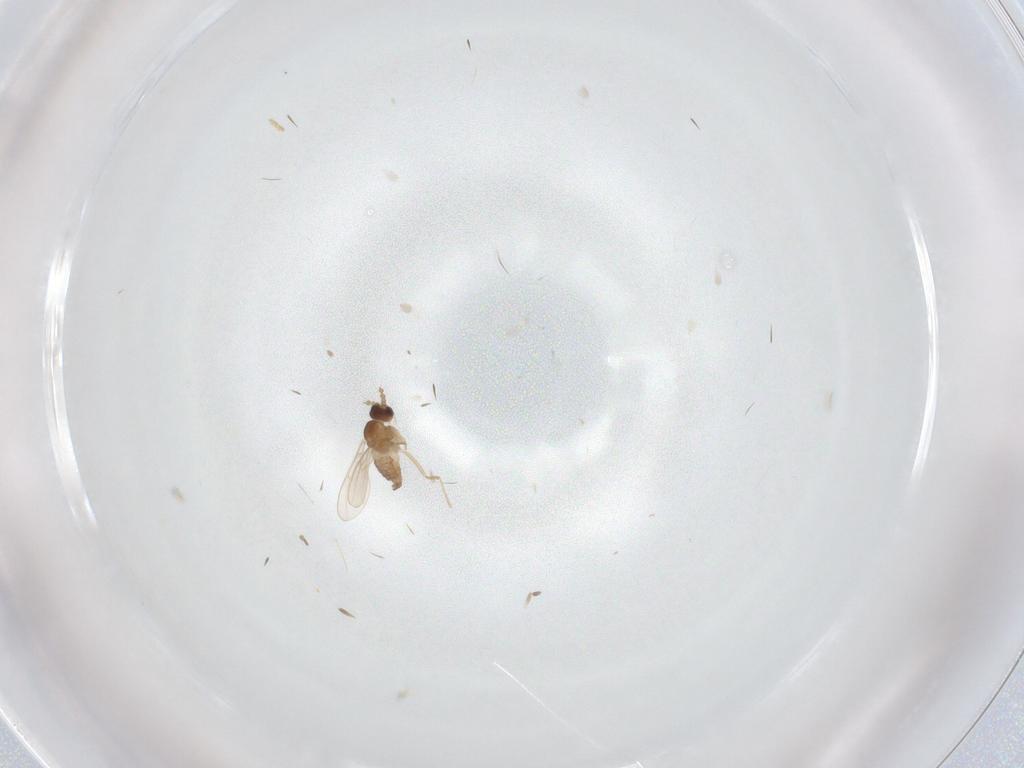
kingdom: Animalia
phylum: Arthropoda
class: Insecta
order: Diptera
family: Cecidomyiidae
